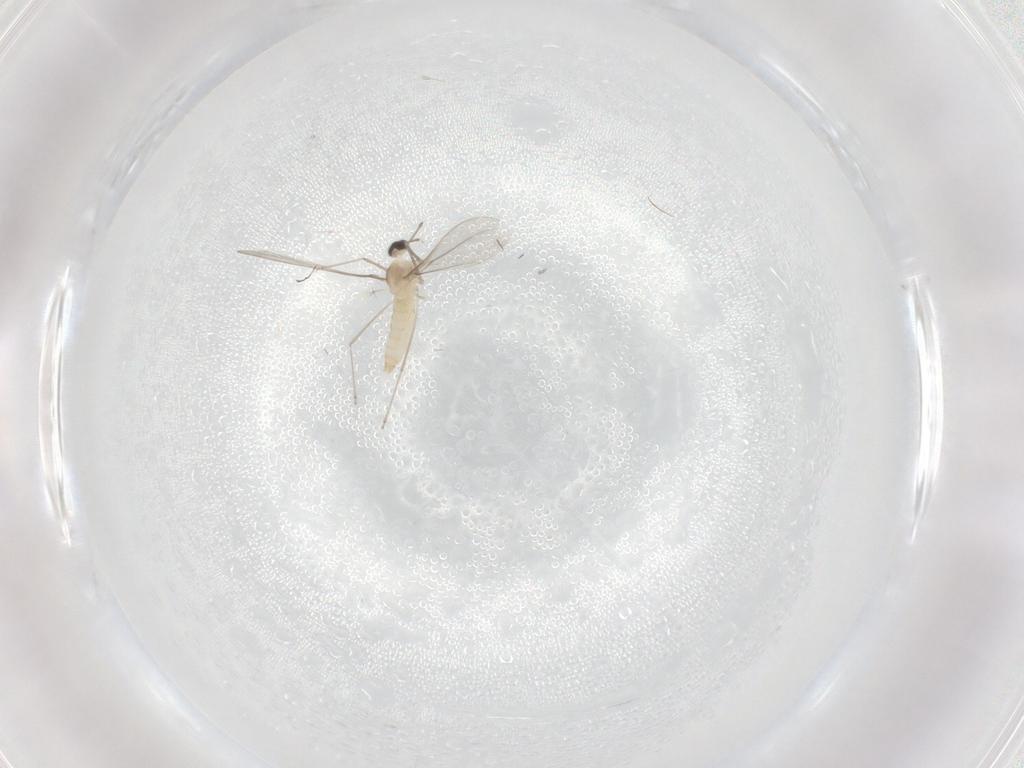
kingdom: Animalia
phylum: Arthropoda
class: Insecta
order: Diptera
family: Cecidomyiidae
